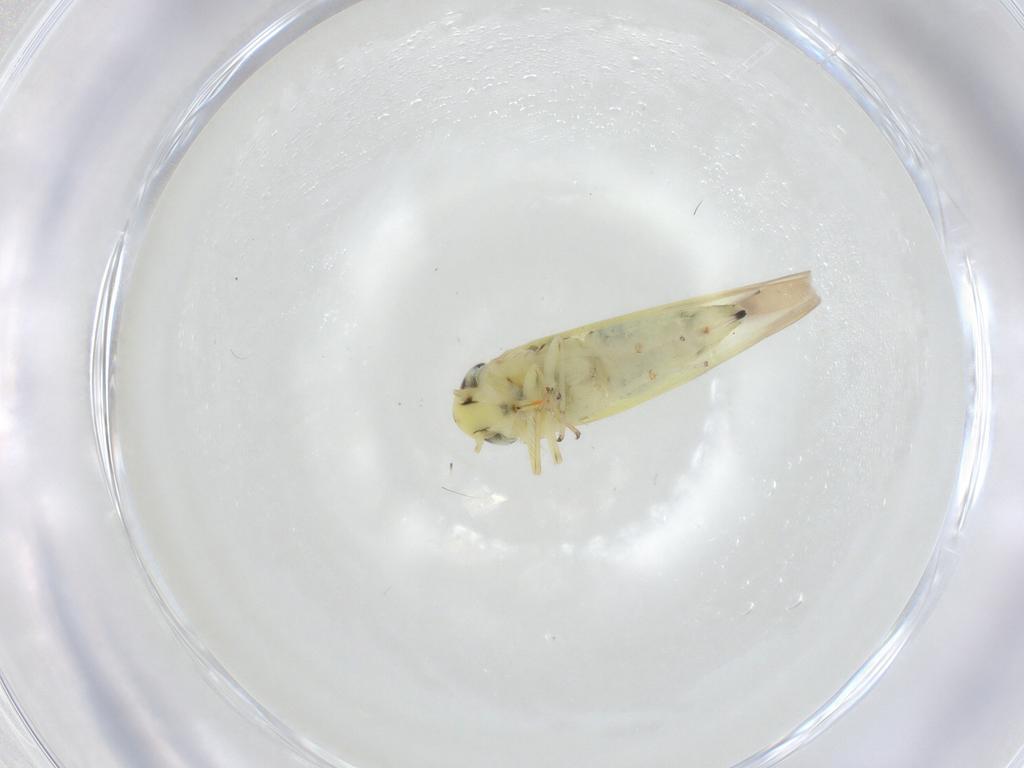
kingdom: Animalia
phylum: Arthropoda
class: Insecta
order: Hemiptera
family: Cicadellidae
